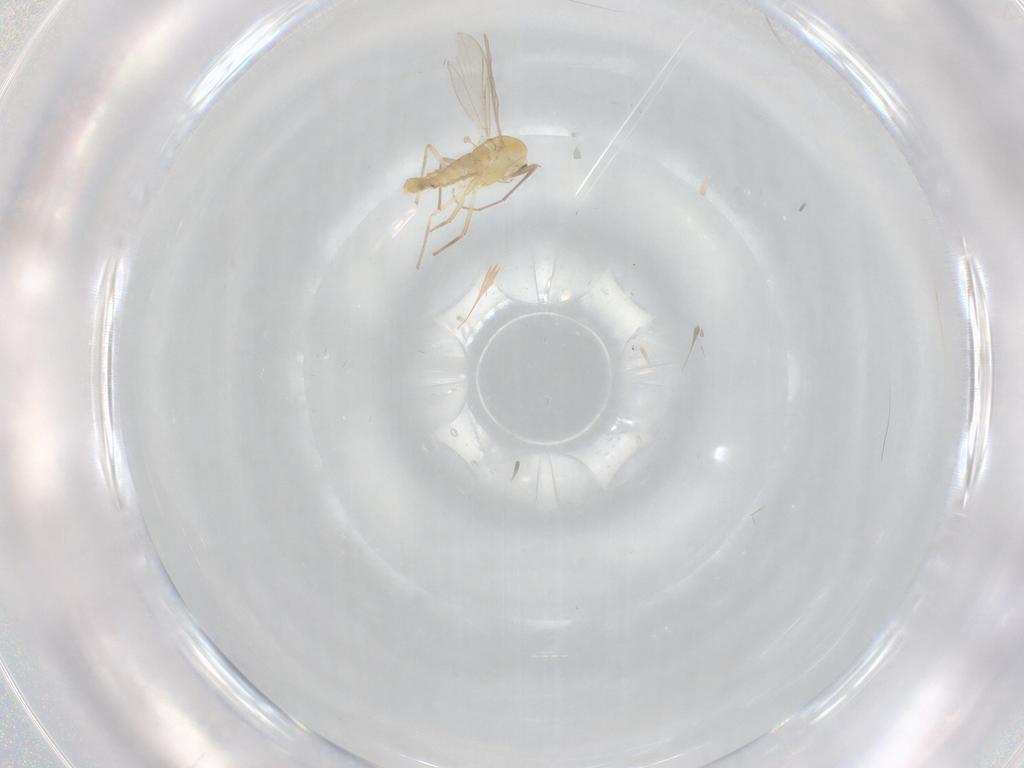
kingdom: Animalia
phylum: Arthropoda
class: Insecta
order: Diptera
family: Chironomidae
